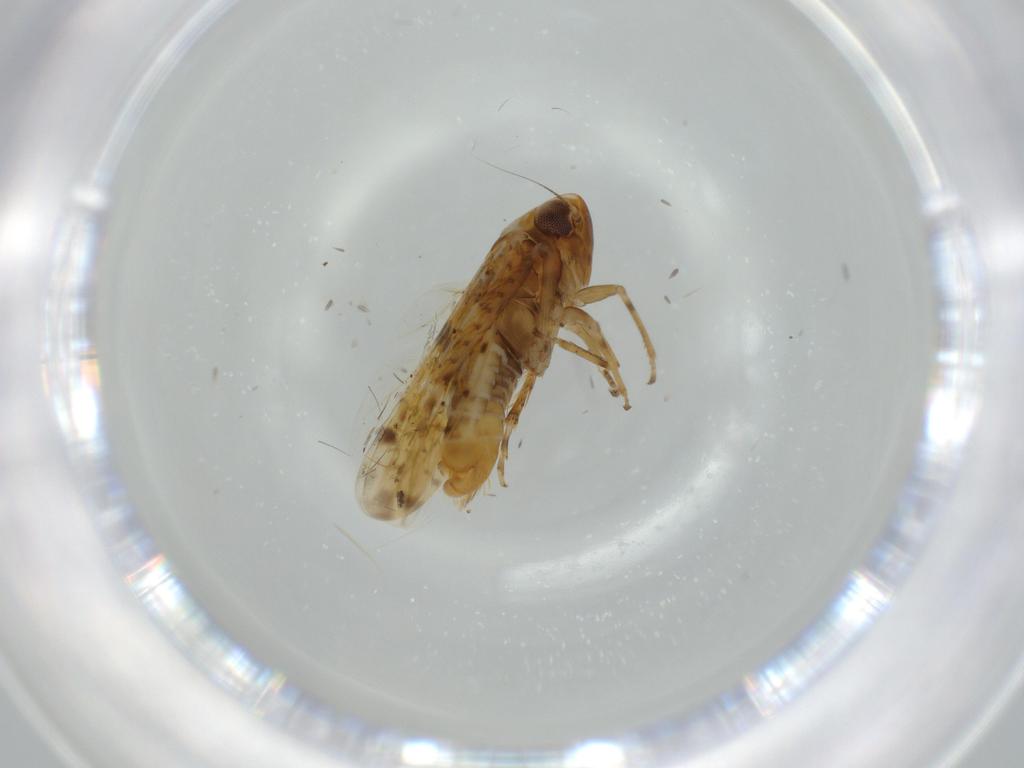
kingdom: Animalia
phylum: Arthropoda
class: Insecta
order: Hemiptera
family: Cicadellidae
